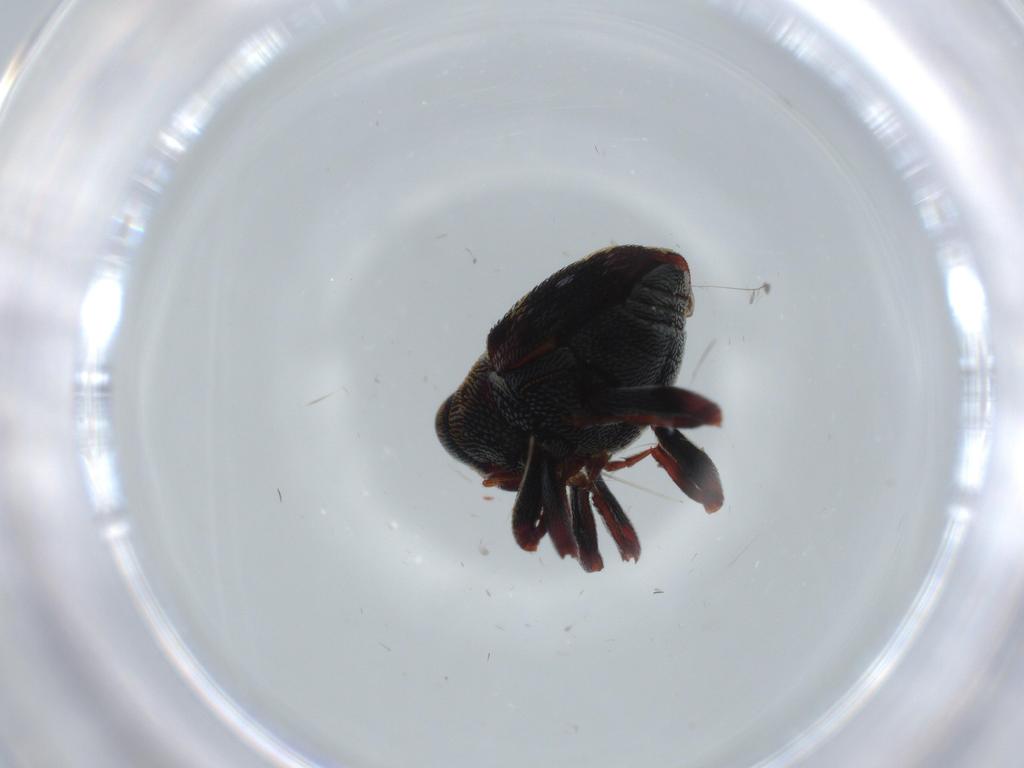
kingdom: Animalia
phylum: Arthropoda
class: Insecta
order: Coleoptera
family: Curculionidae
